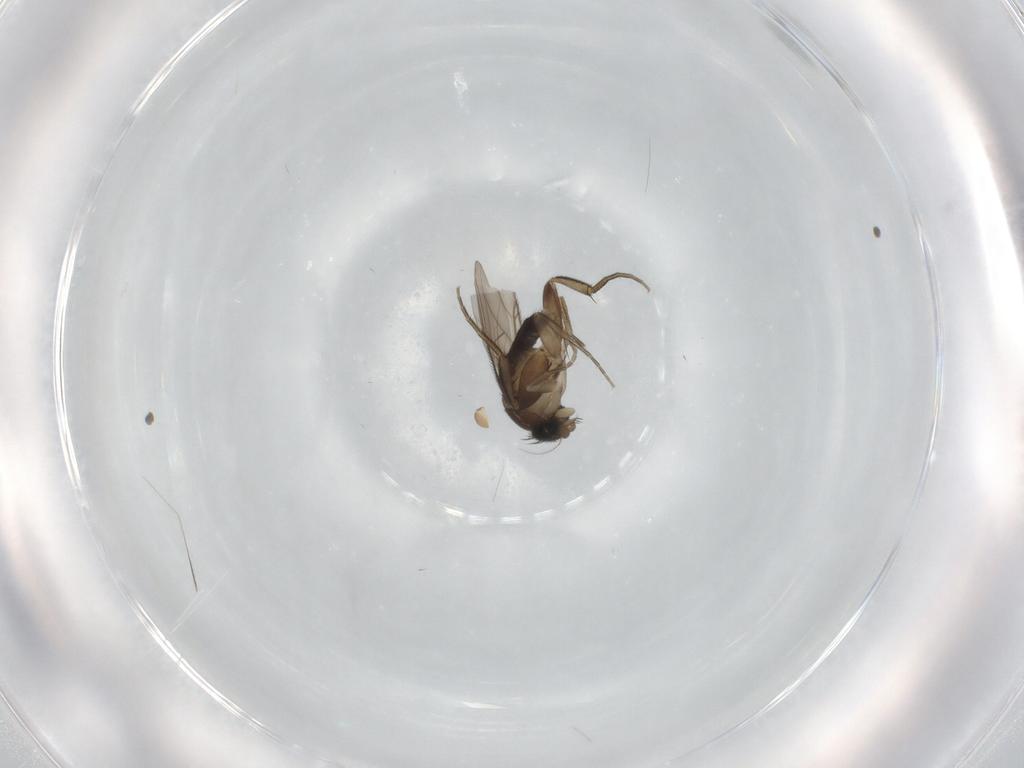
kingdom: Animalia
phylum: Arthropoda
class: Insecta
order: Diptera
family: Phoridae
